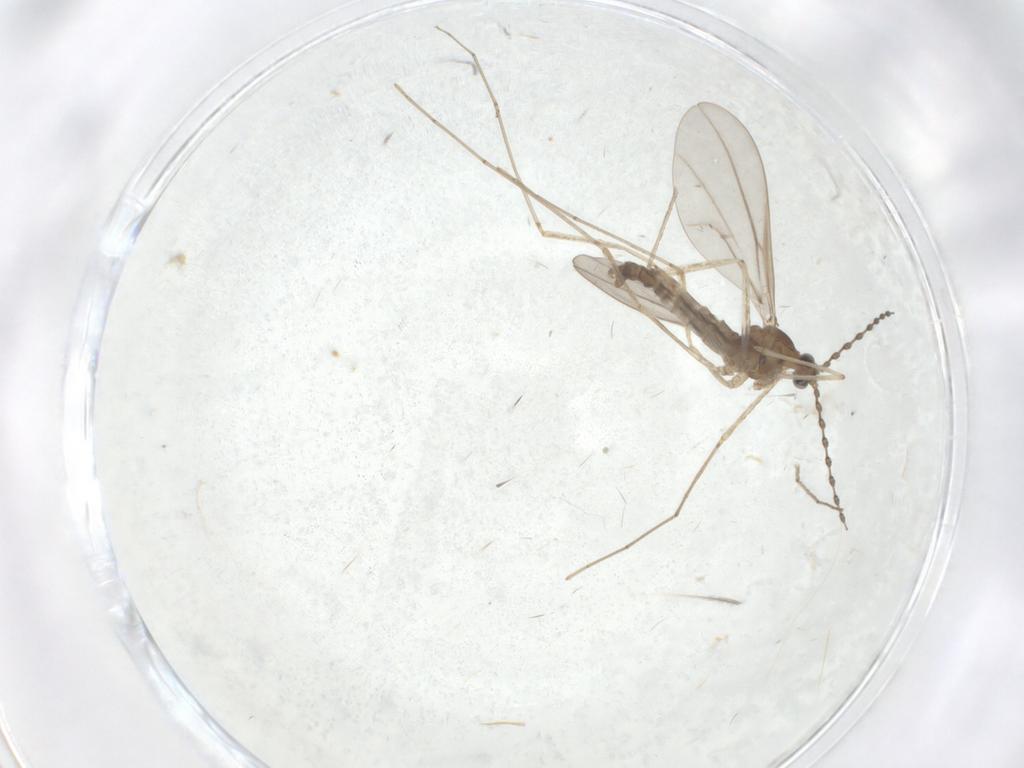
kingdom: Animalia
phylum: Arthropoda
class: Insecta
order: Diptera
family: Cecidomyiidae
